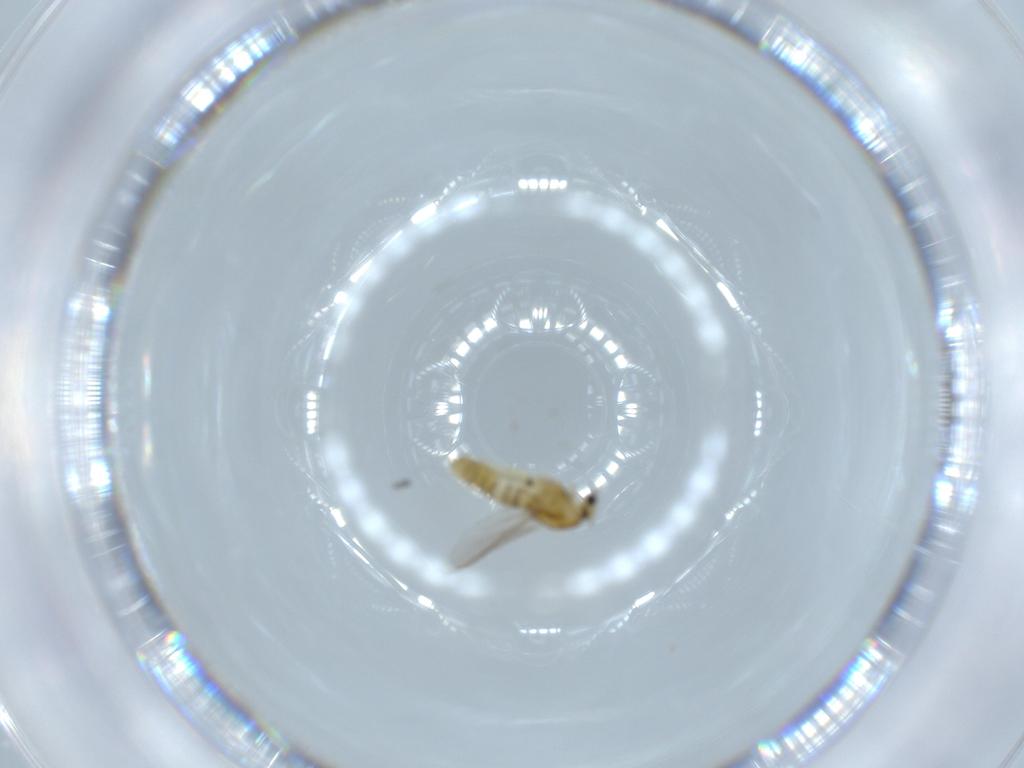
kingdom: Animalia
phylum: Arthropoda
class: Insecta
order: Diptera
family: Chironomidae
